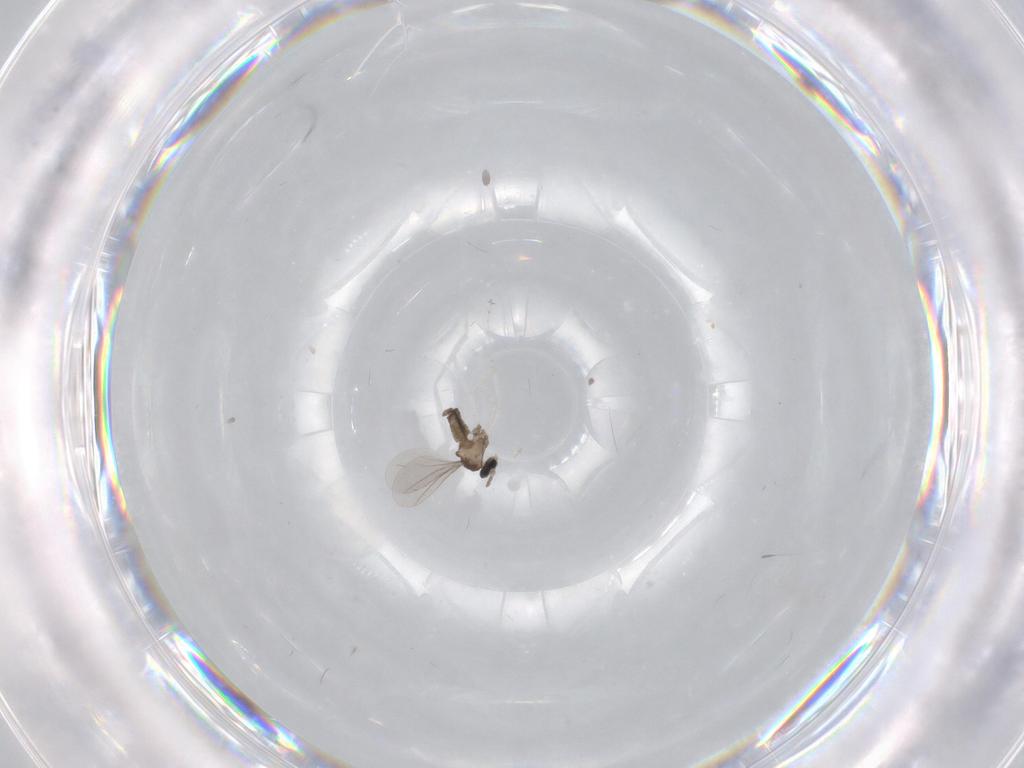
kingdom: Animalia
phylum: Arthropoda
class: Insecta
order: Diptera
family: Cecidomyiidae
